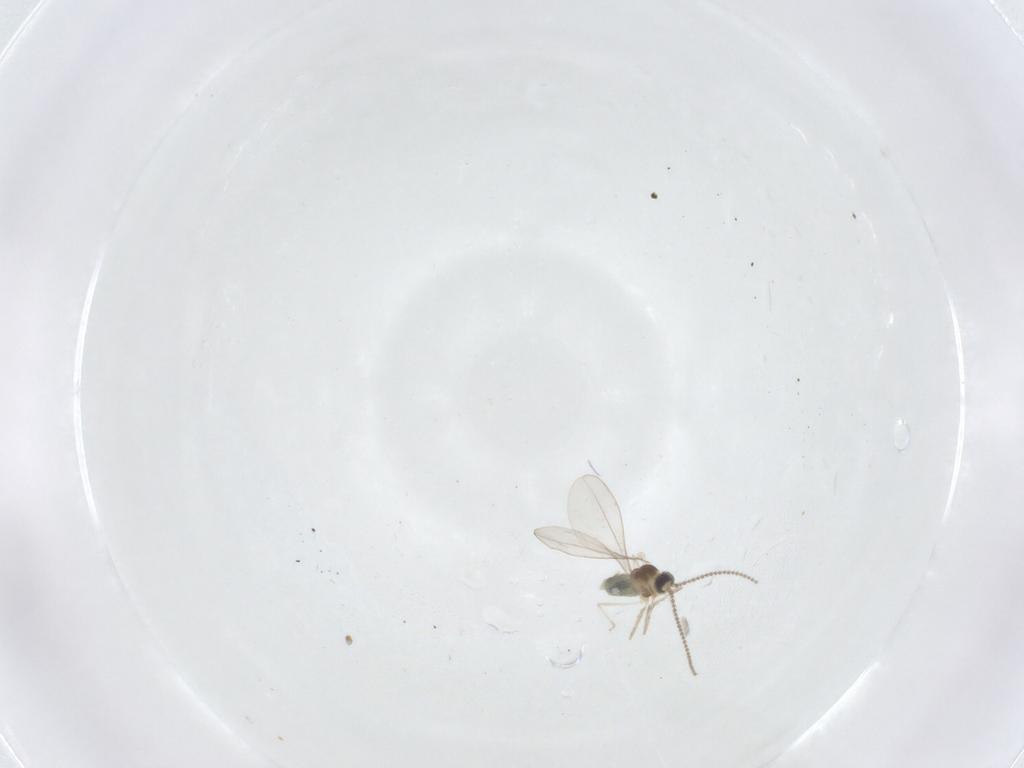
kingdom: Animalia
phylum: Arthropoda
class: Insecta
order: Diptera
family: Cecidomyiidae
